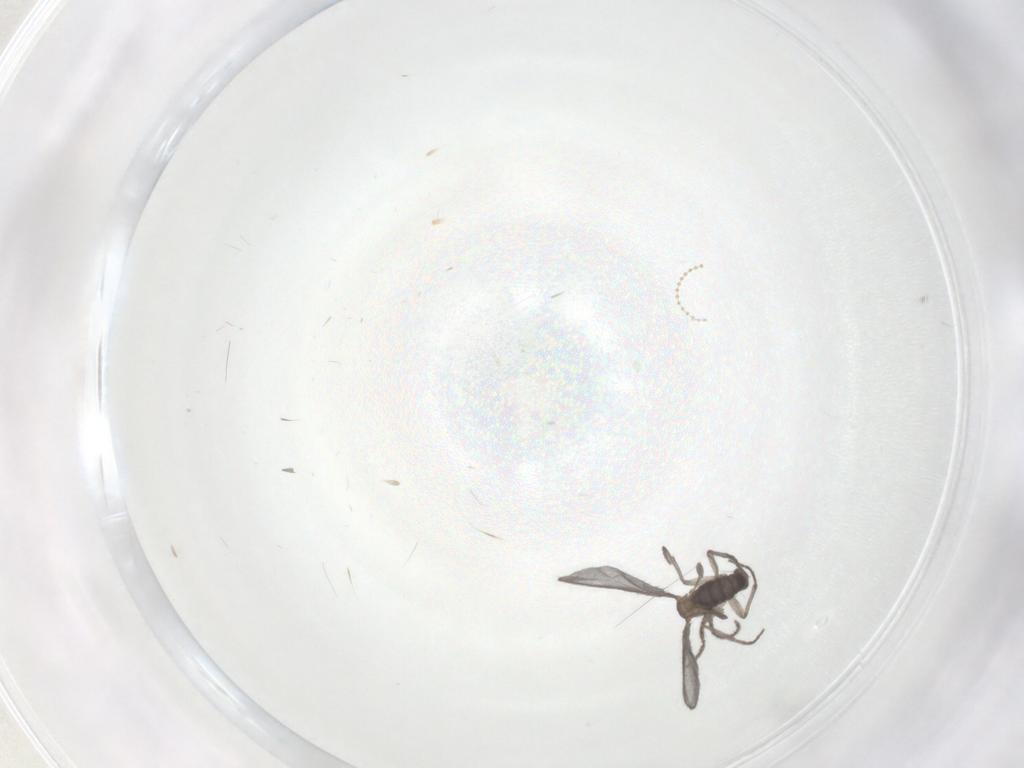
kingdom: Animalia
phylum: Arthropoda
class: Insecta
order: Diptera
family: Sciaridae
